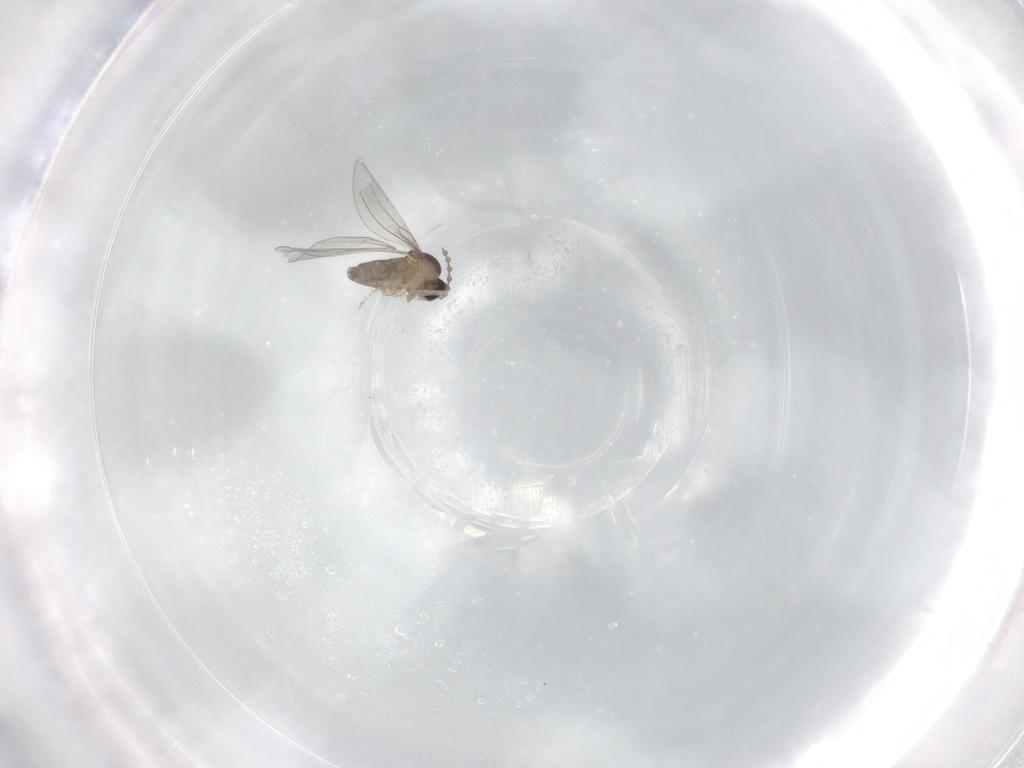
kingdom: Animalia
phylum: Arthropoda
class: Insecta
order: Diptera
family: Cecidomyiidae
